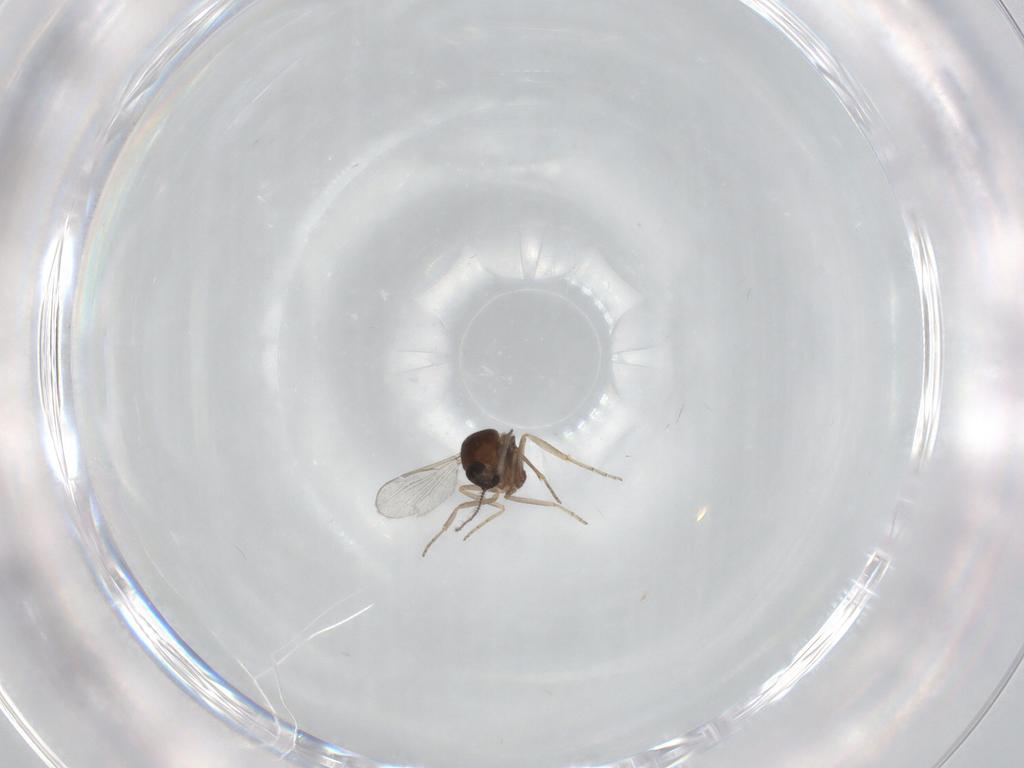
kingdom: Animalia
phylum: Arthropoda
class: Insecta
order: Diptera
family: Ceratopogonidae
